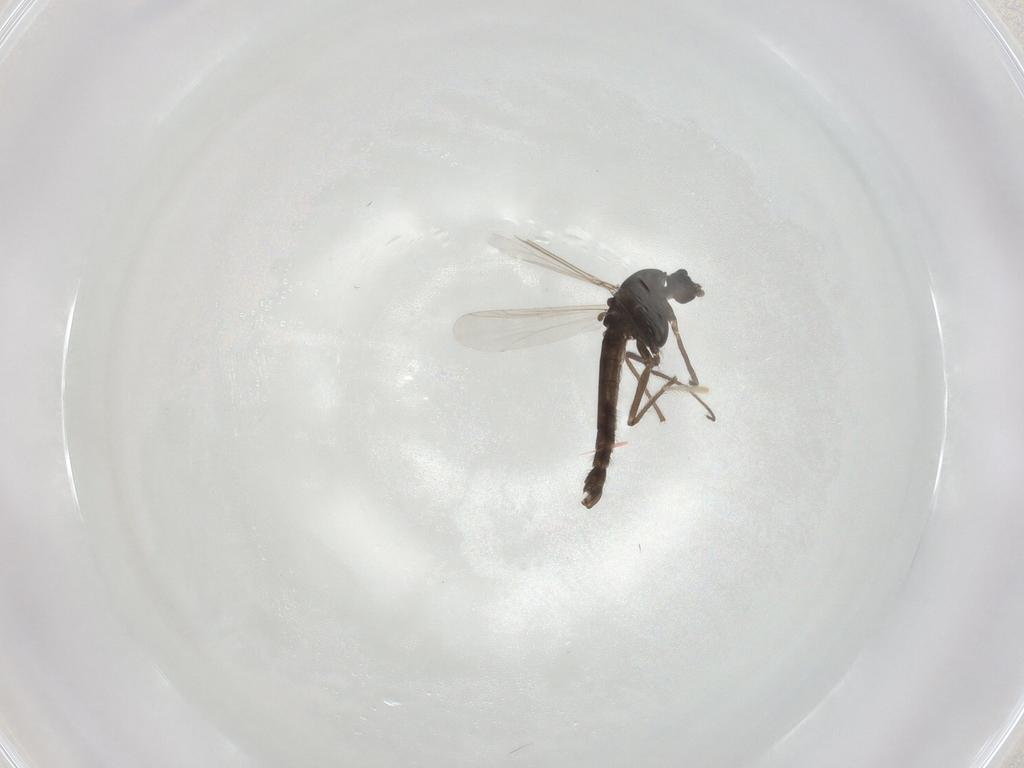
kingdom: Animalia
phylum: Arthropoda
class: Insecta
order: Diptera
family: Chironomidae
